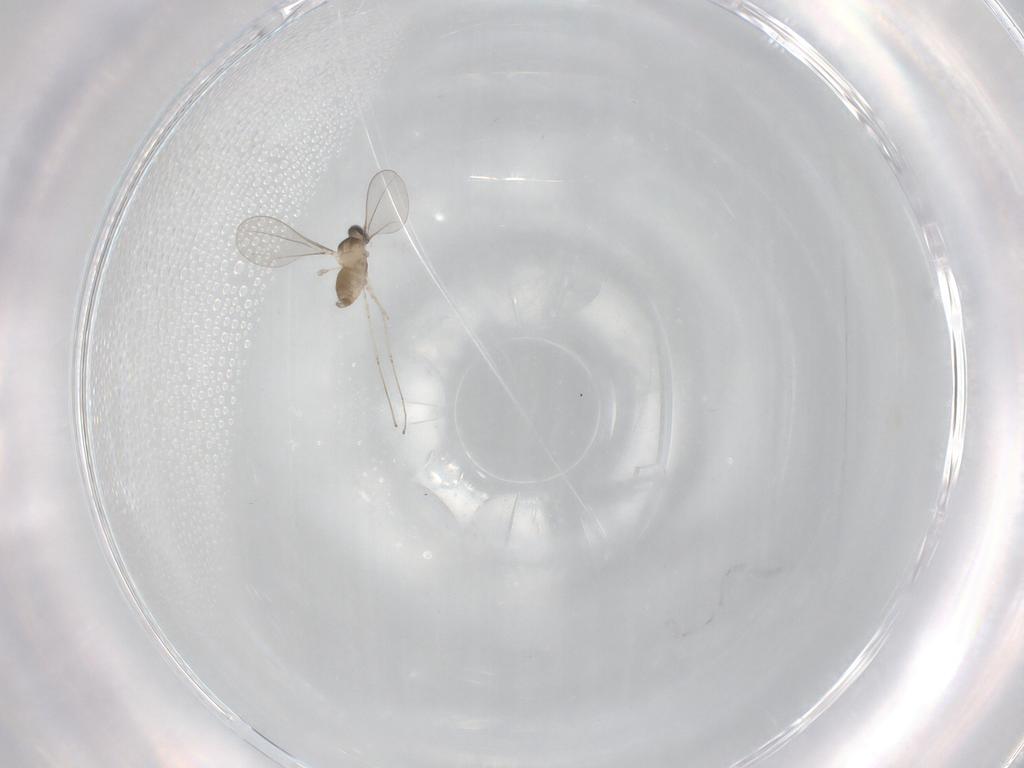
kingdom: Animalia
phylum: Arthropoda
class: Insecta
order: Diptera
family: Cecidomyiidae
